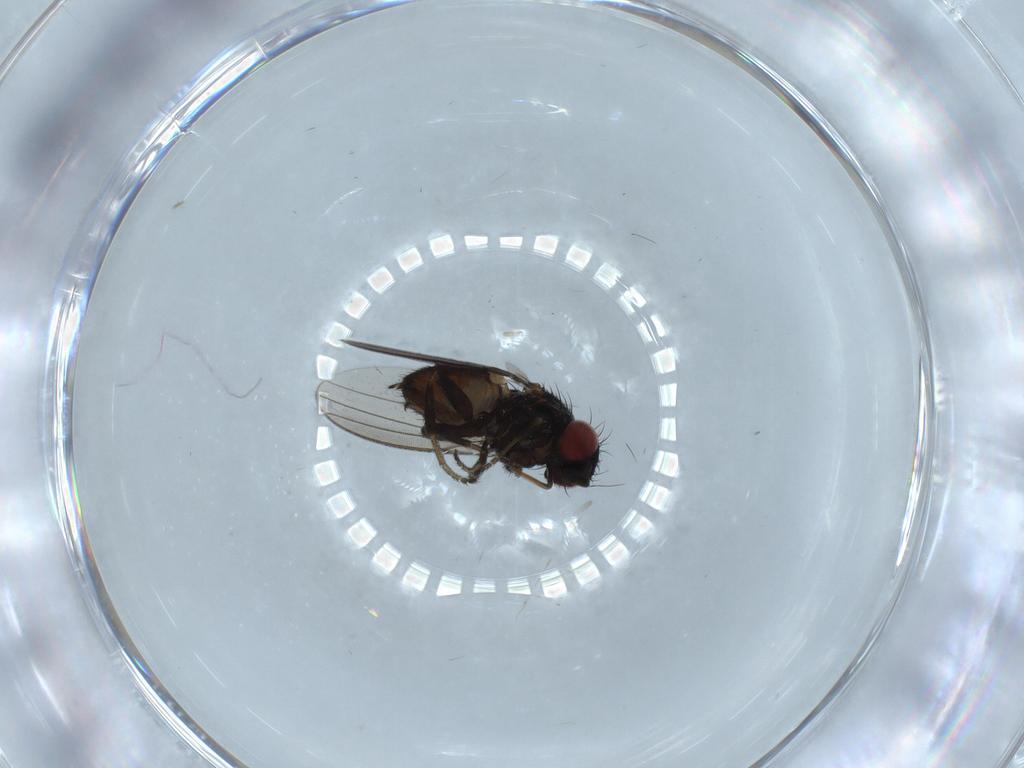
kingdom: Animalia
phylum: Arthropoda
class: Insecta
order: Diptera
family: Milichiidae
